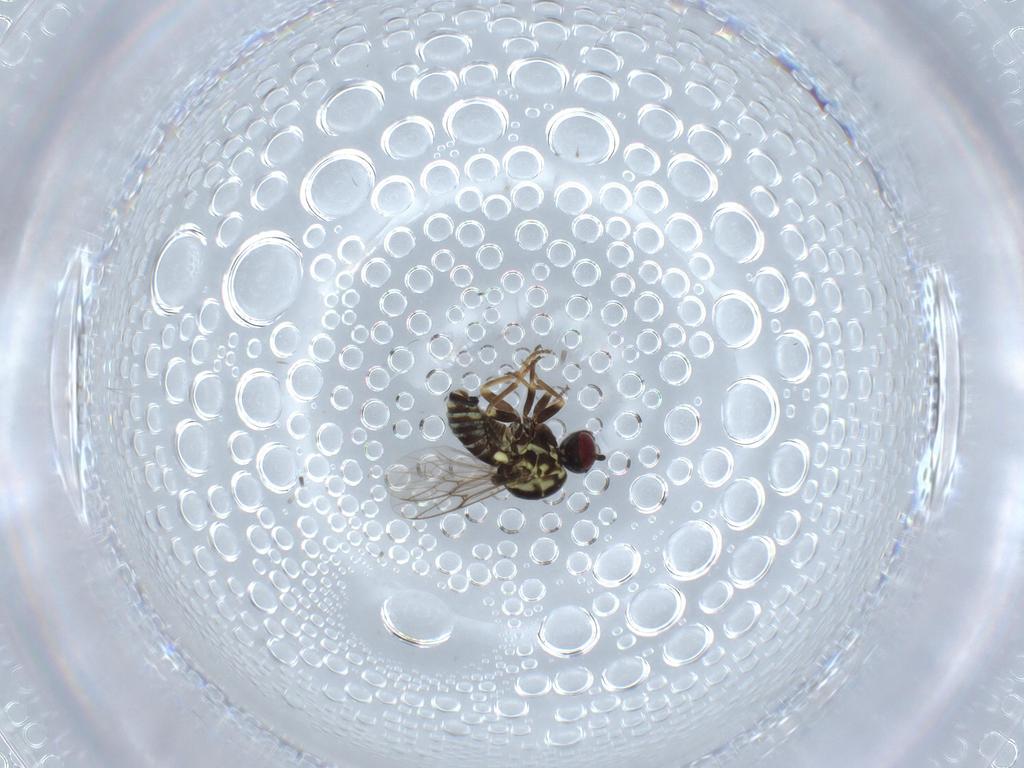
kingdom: Animalia
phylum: Arthropoda
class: Insecta
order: Diptera
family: Bombyliidae
